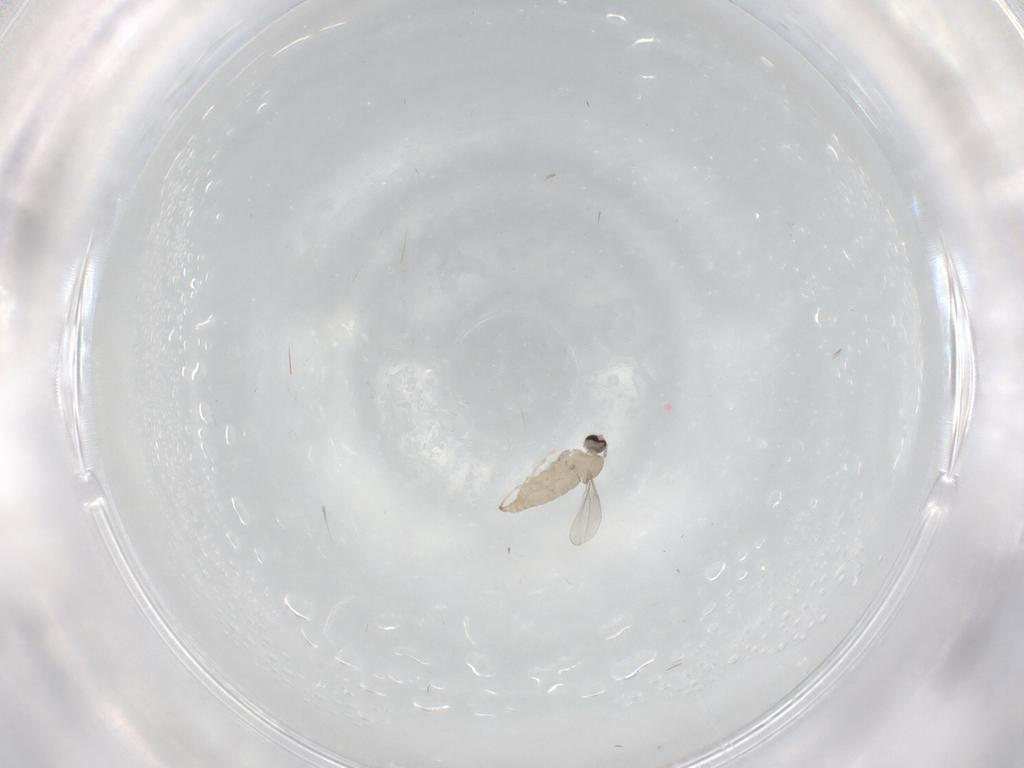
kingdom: Animalia
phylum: Arthropoda
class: Insecta
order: Diptera
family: Cecidomyiidae
